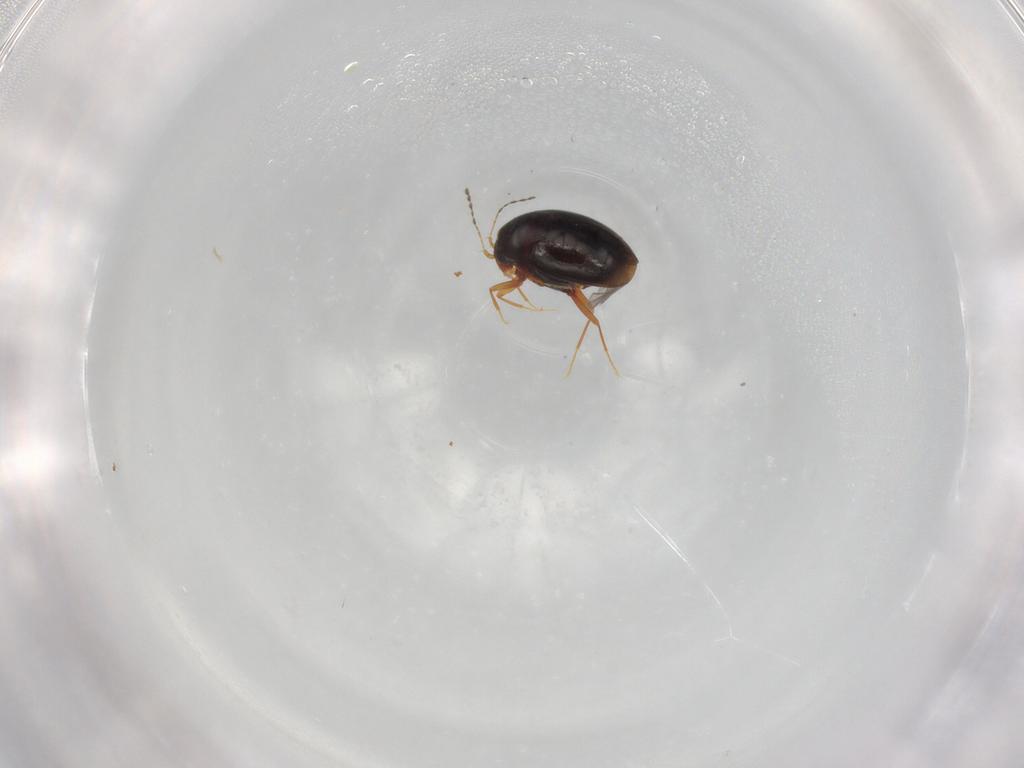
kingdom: Animalia
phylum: Arthropoda
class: Insecta
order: Coleoptera
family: Staphylinidae
